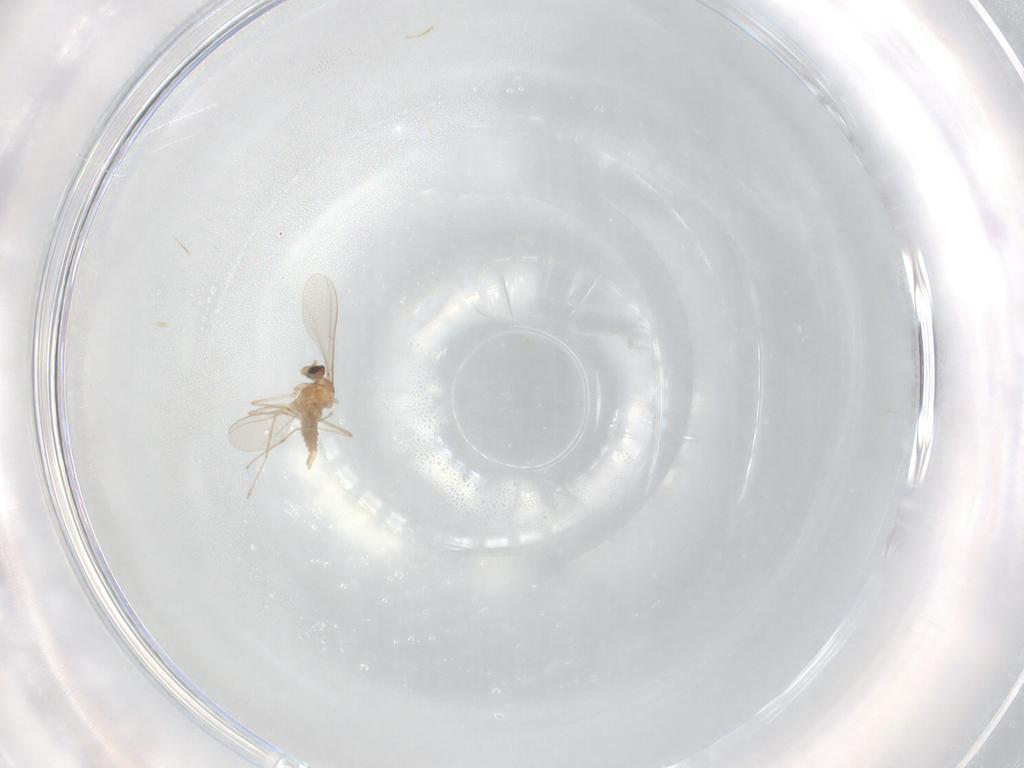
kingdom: Animalia
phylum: Arthropoda
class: Insecta
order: Diptera
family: Cecidomyiidae
